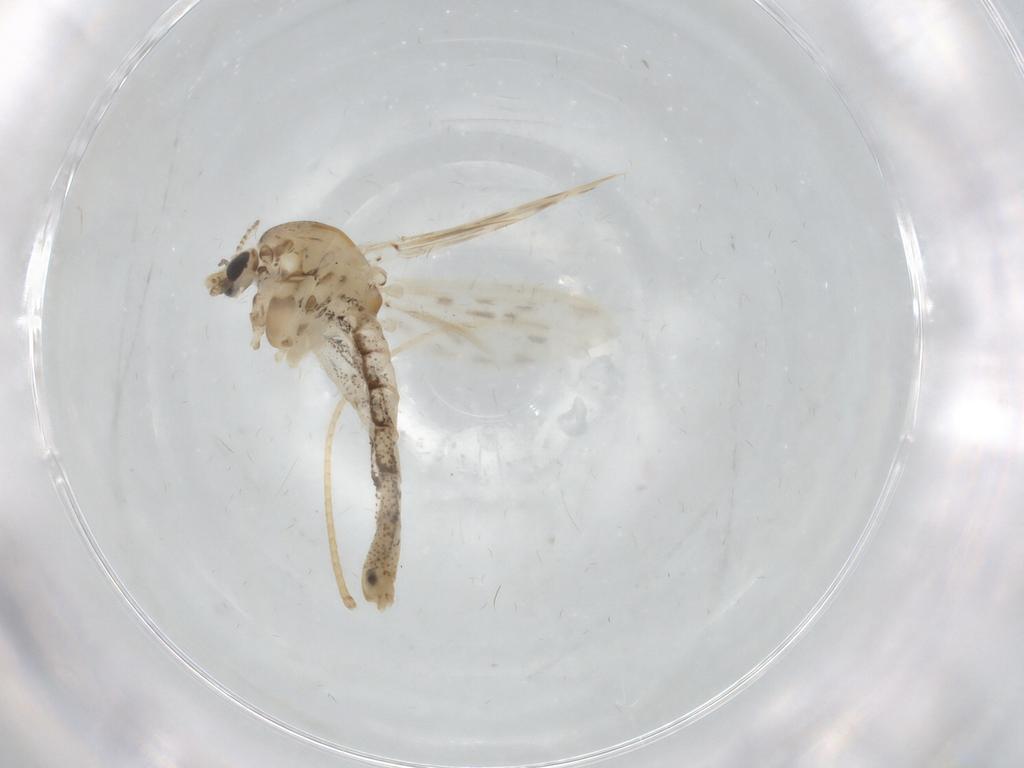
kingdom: Animalia
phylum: Arthropoda
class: Insecta
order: Diptera
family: Chaoboridae
